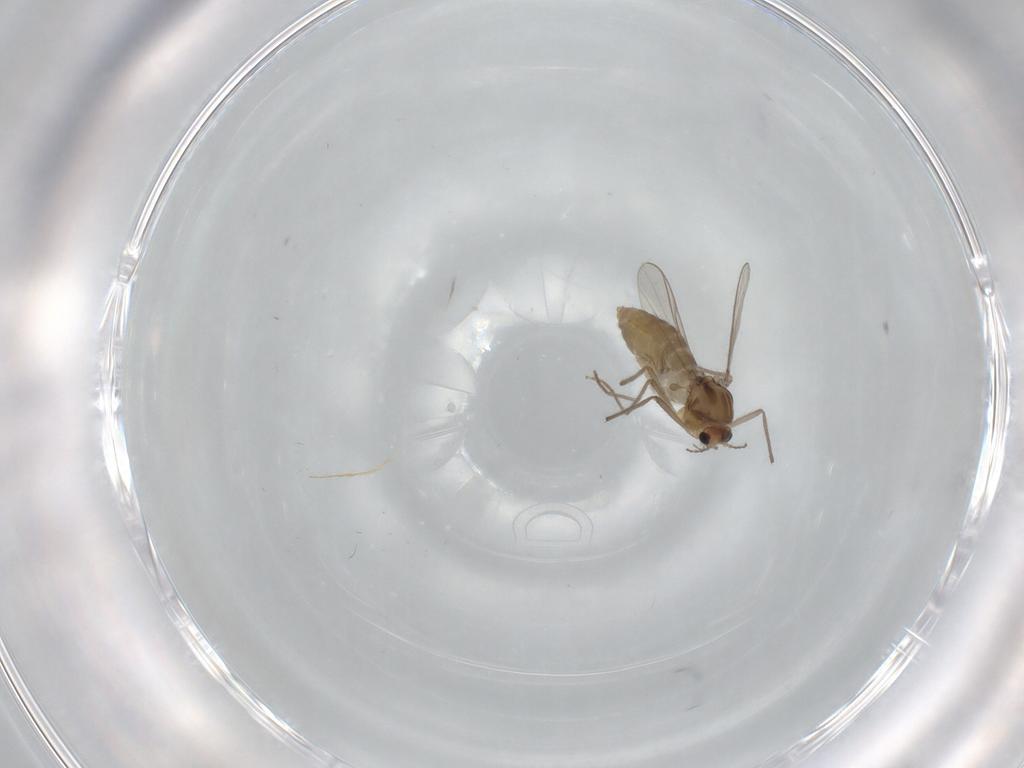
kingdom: Animalia
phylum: Arthropoda
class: Insecta
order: Diptera
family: Chironomidae
